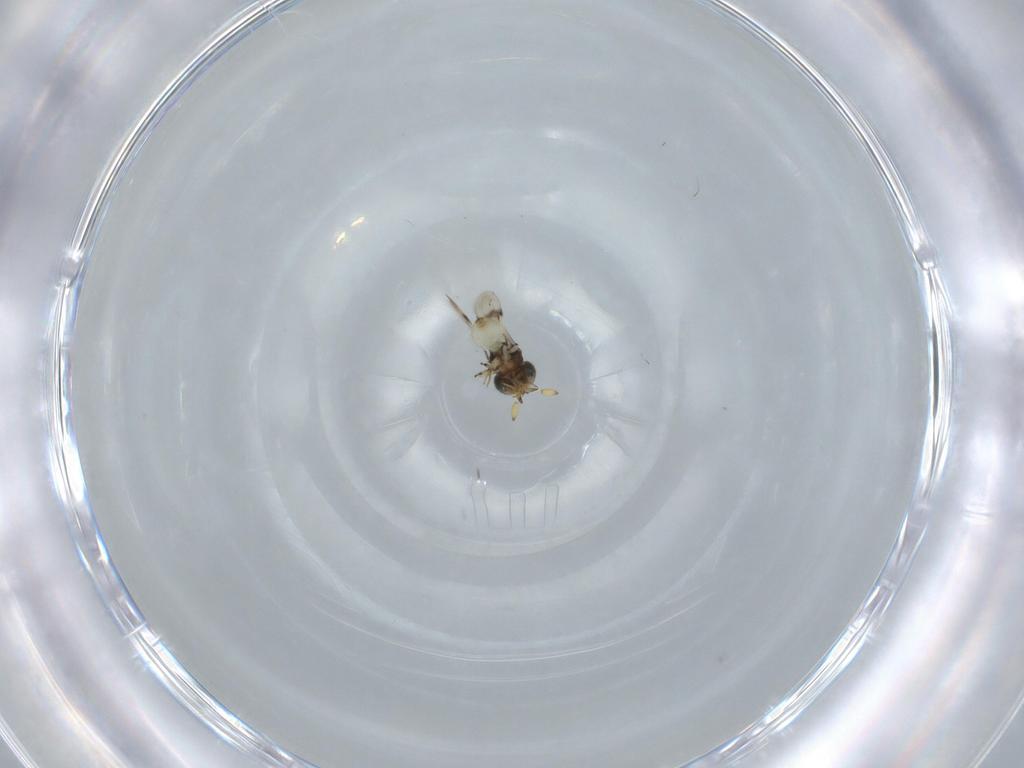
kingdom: Animalia
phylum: Arthropoda
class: Insecta
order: Hymenoptera
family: Scelionidae
